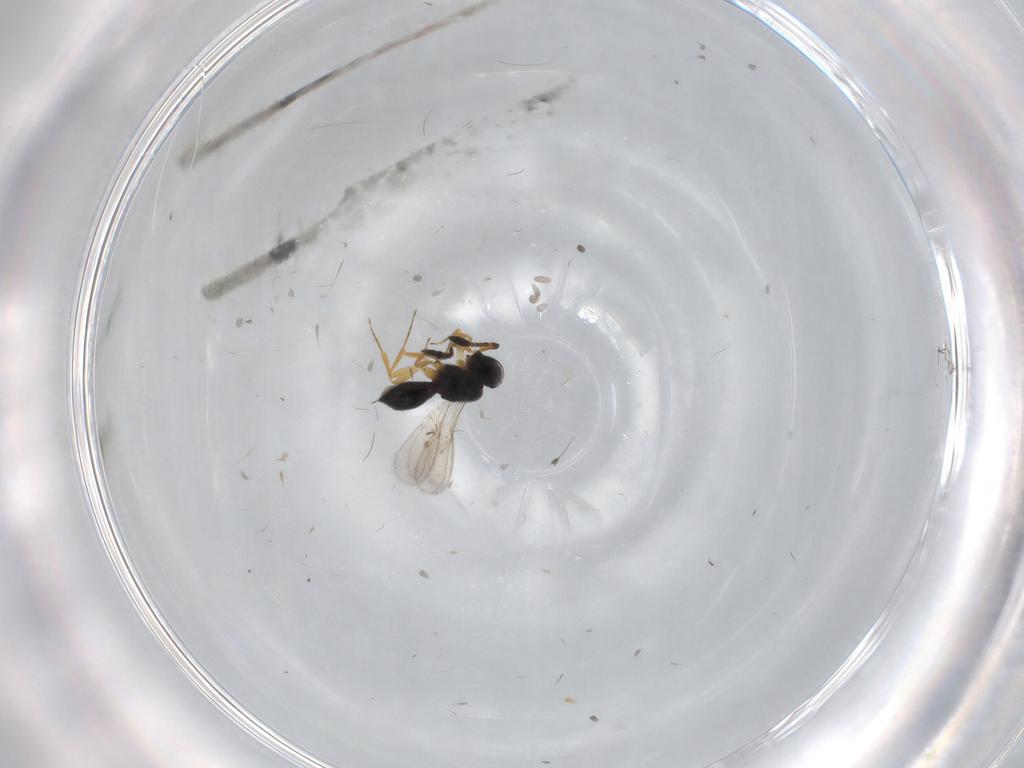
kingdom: Animalia
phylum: Arthropoda
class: Insecta
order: Hymenoptera
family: Scelionidae
